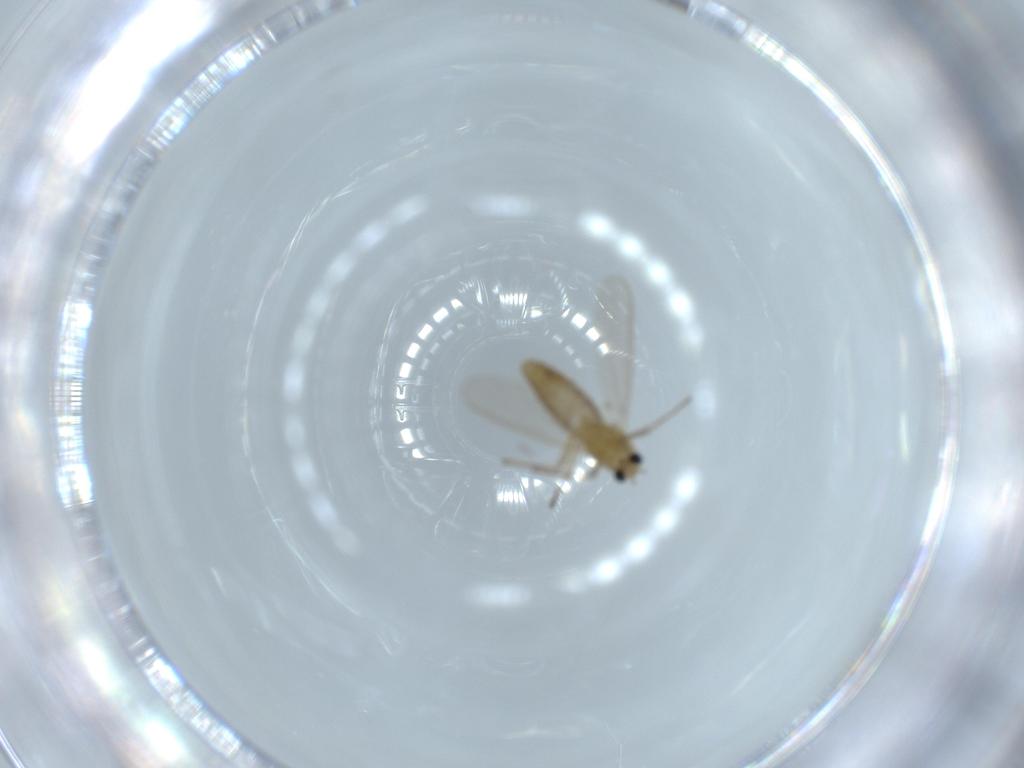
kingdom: Animalia
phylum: Arthropoda
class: Insecta
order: Diptera
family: Chironomidae
